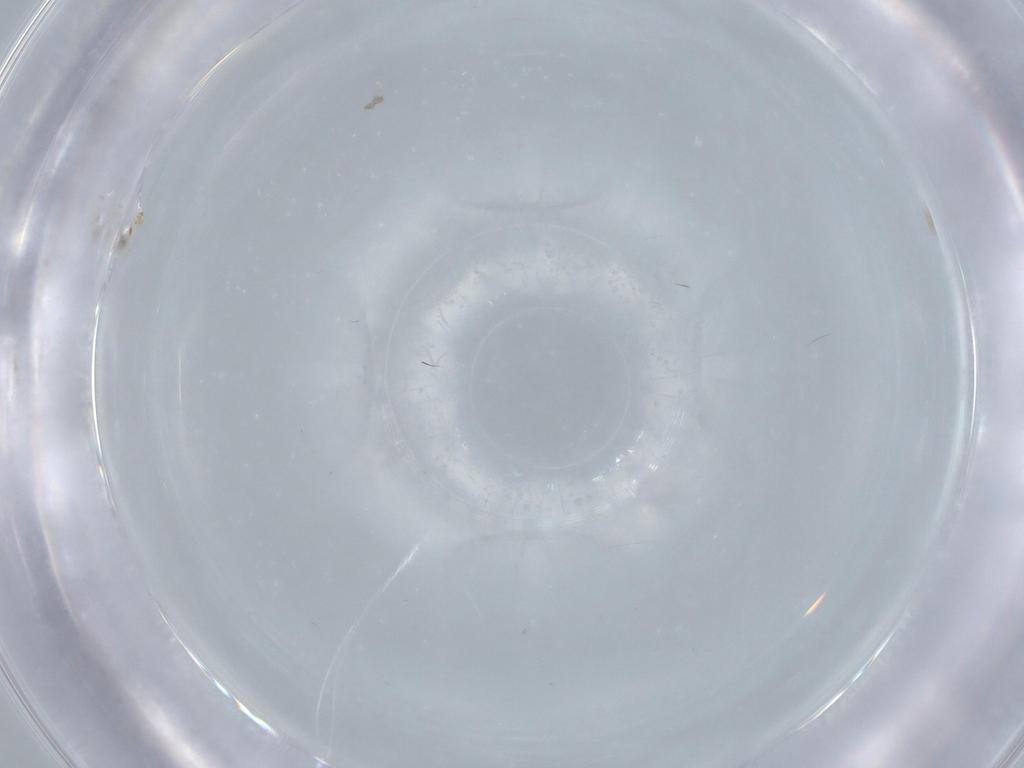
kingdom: Animalia
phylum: Arthropoda
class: Insecta
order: Diptera
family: Cecidomyiidae
